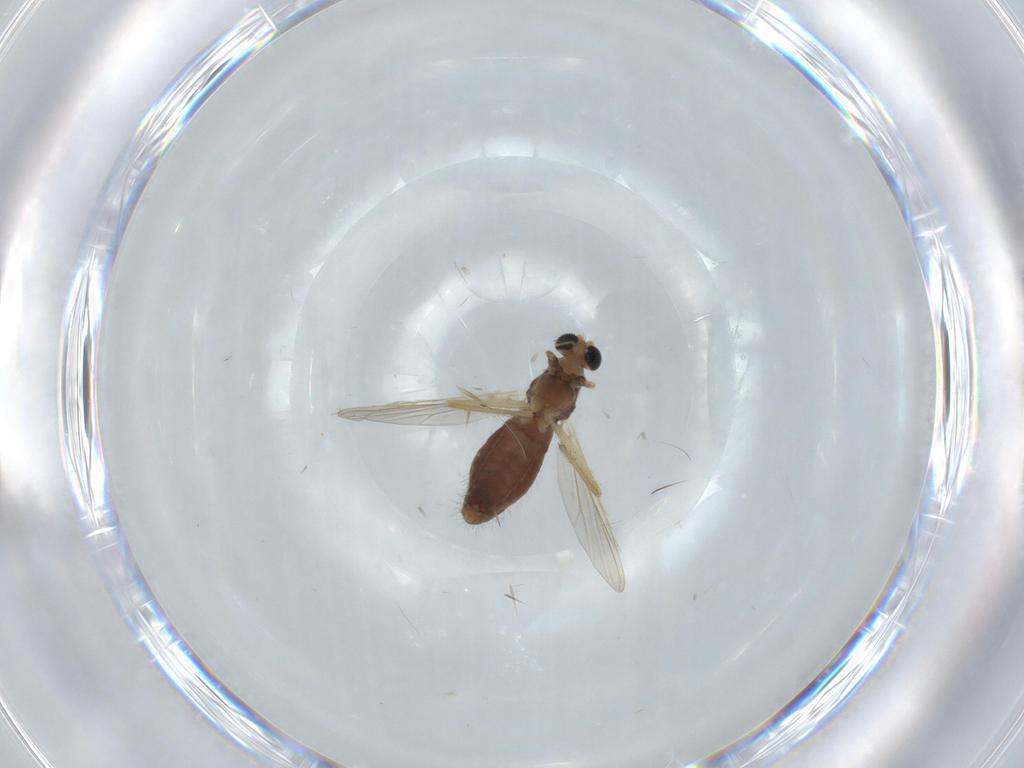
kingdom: Animalia
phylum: Arthropoda
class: Insecta
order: Diptera
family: Chironomidae
